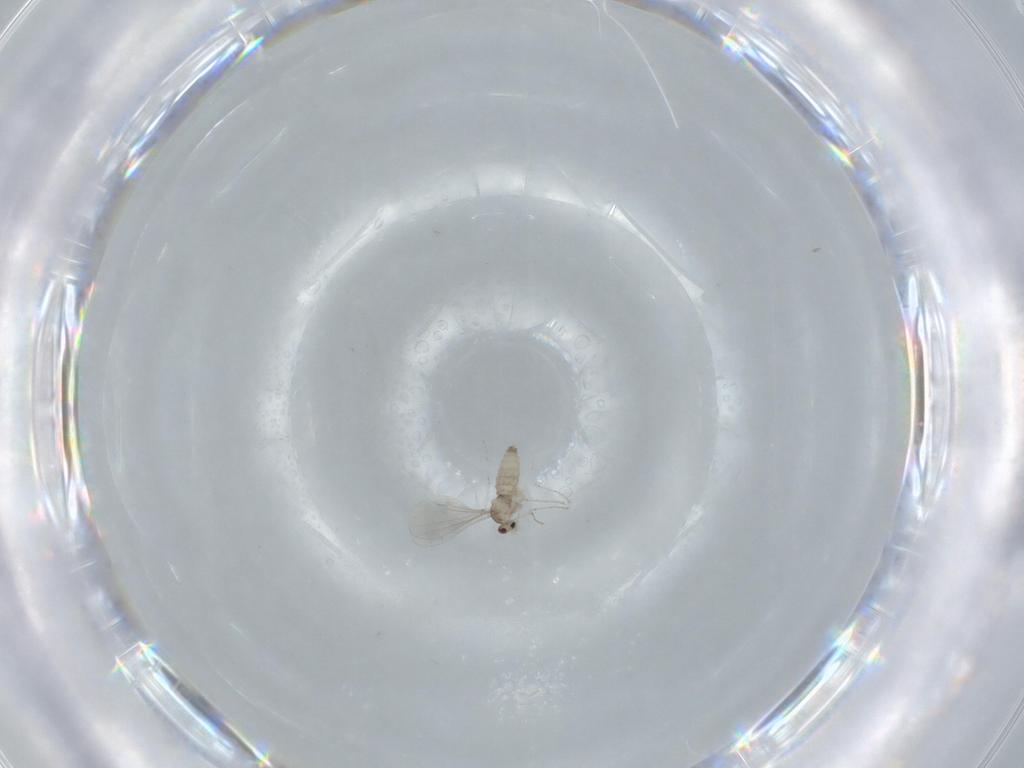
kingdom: Animalia
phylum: Arthropoda
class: Insecta
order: Diptera
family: Cecidomyiidae
